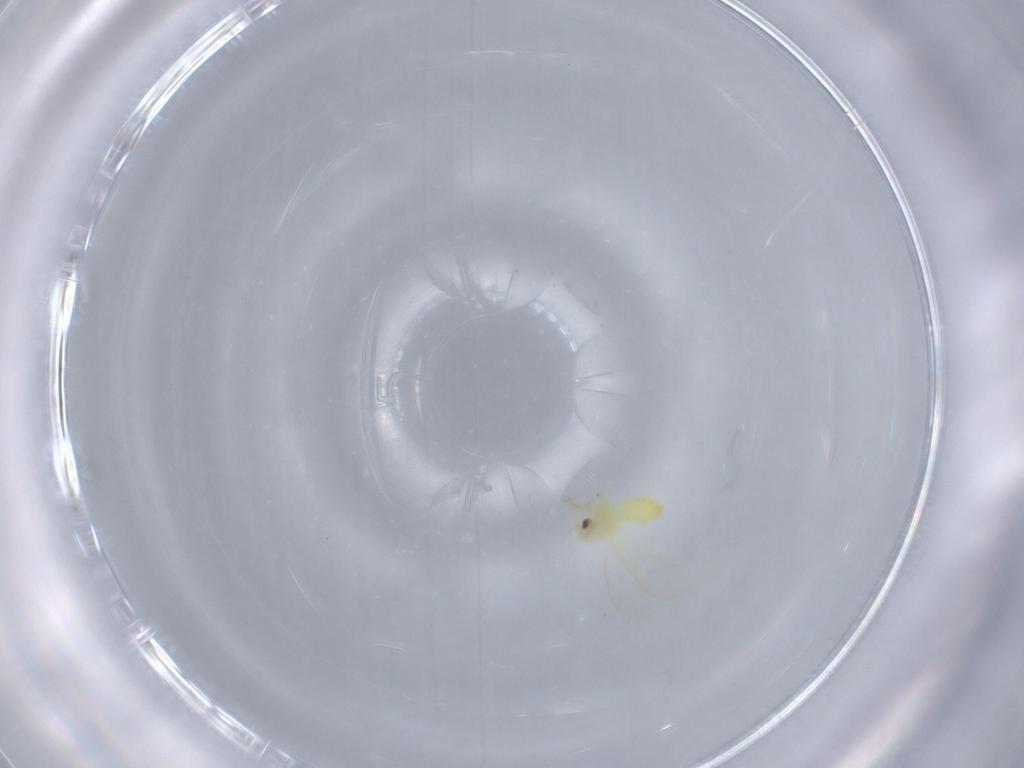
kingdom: Animalia
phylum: Arthropoda
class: Insecta
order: Hemiptera
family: Aleyrodidae
